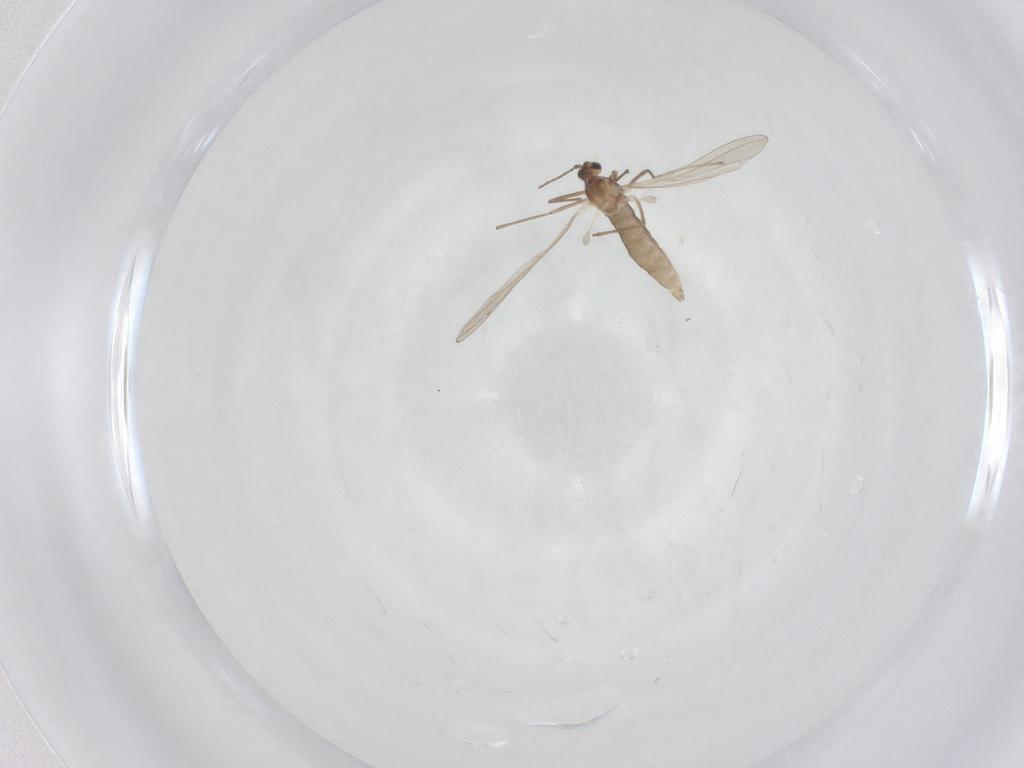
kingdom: Animalia
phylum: Arthropoda
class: Insecta
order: Diptera
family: Cecidomyiidae
